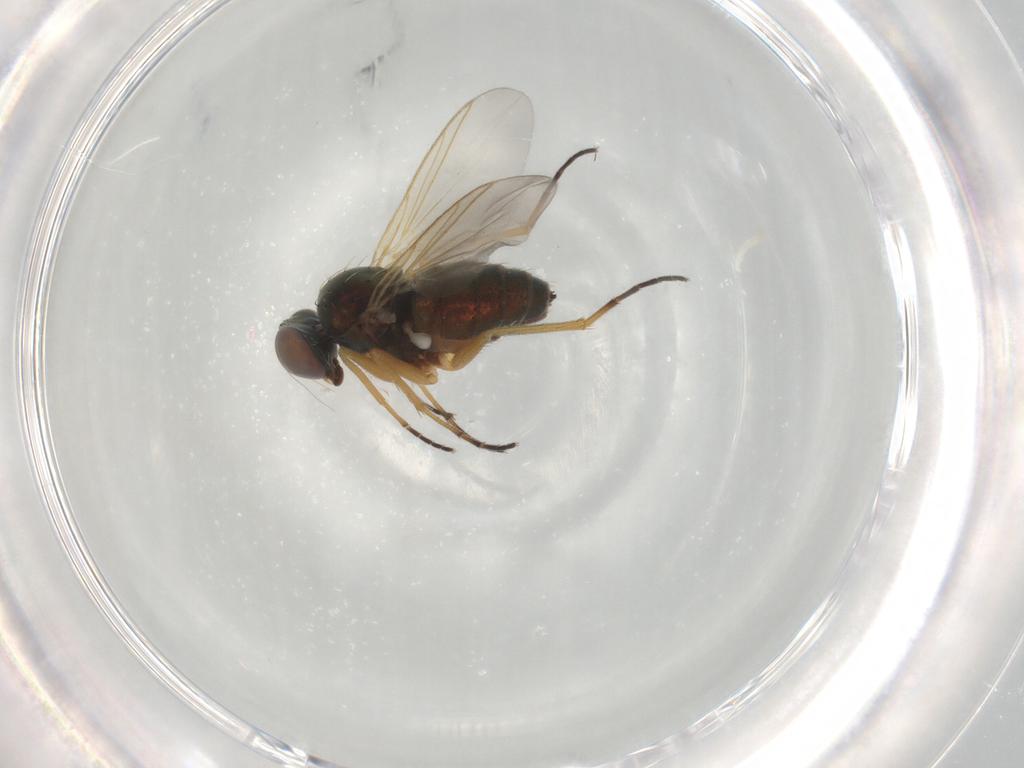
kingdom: Animalia
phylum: Arthropoda
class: Insecta
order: Diptera
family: Dolichopodidae
